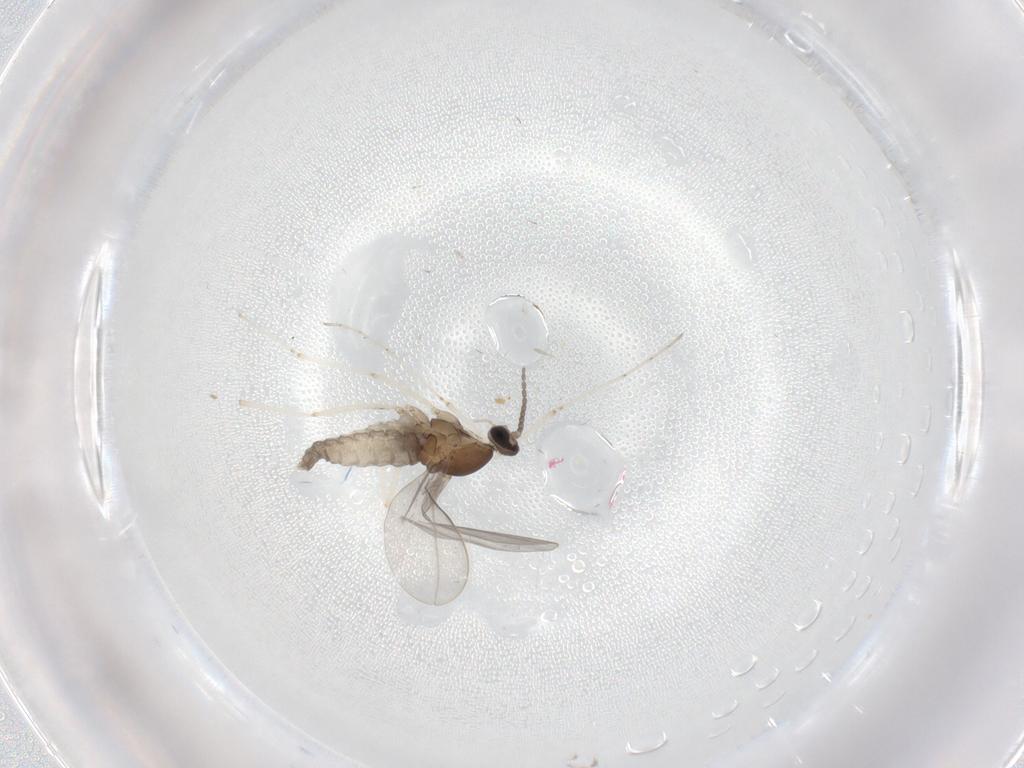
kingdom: Animalia
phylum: Arthropoda
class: Insecta
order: Diptera
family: Cecidomyiidae
